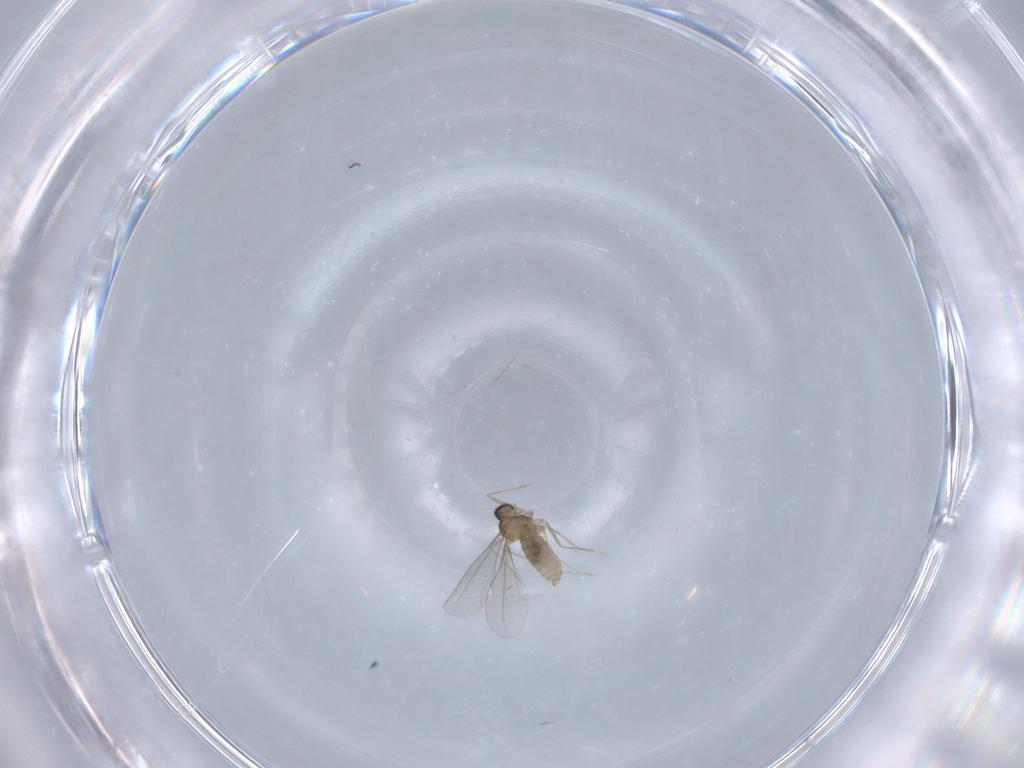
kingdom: Animalia
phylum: Arthropoda
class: Insecta
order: Diptera
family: Cecidomyiidae
